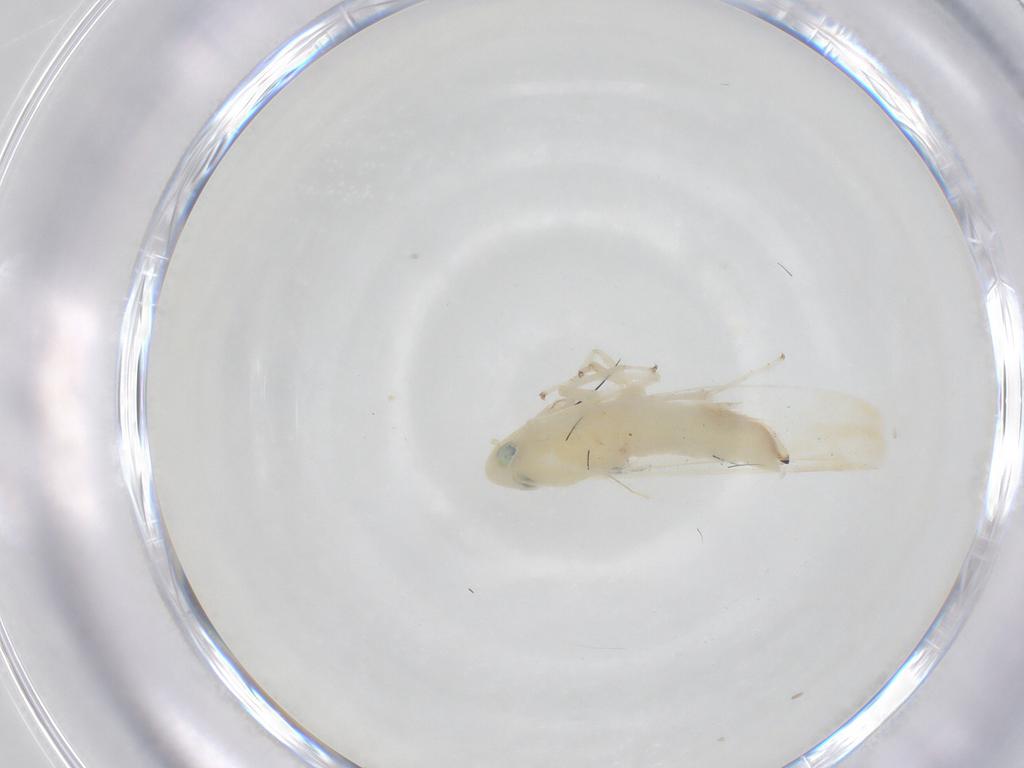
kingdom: Animalia
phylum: Arthropoda
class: Insecta
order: Hemiptera
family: Cicadellidae
